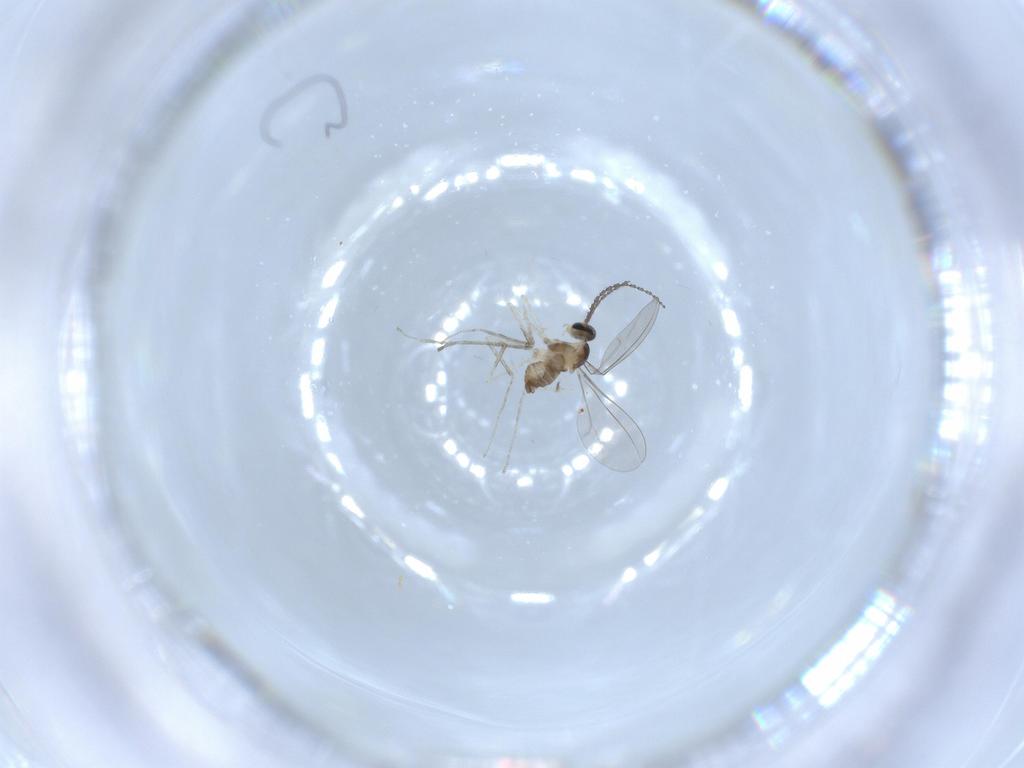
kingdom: Animalia
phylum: Arthropoda
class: Insecta
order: Diptera
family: Cecidomyiidae
